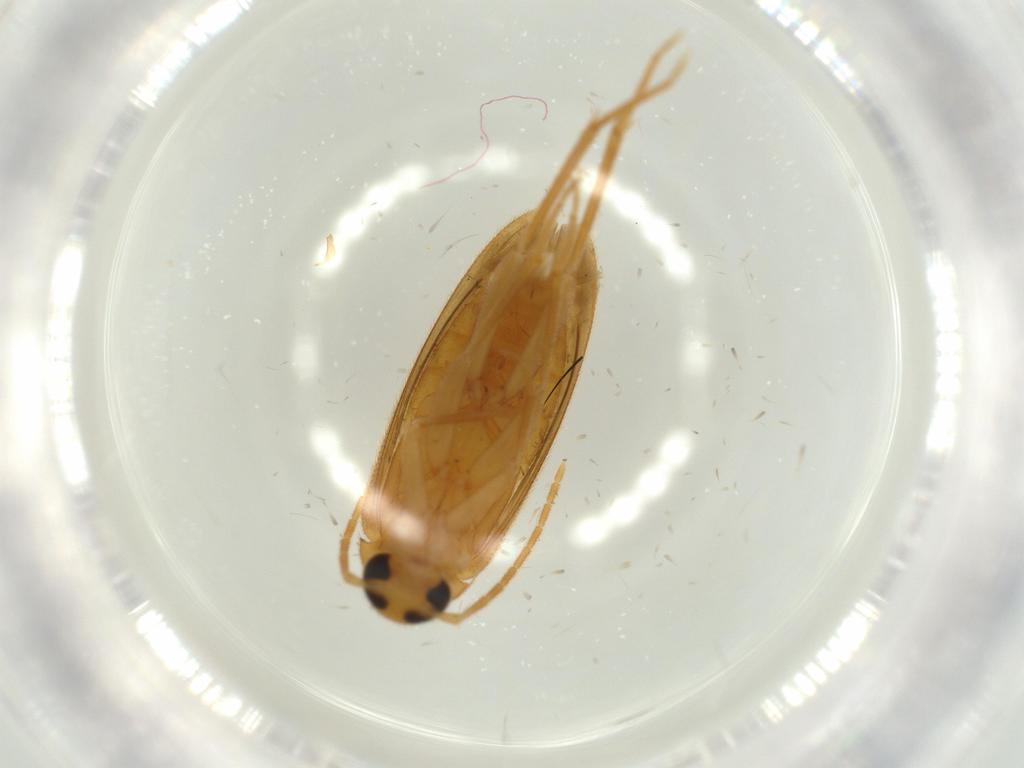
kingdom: Animalia
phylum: Arthropoda
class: Insecta
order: Coleoptera
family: Scraptiidae
